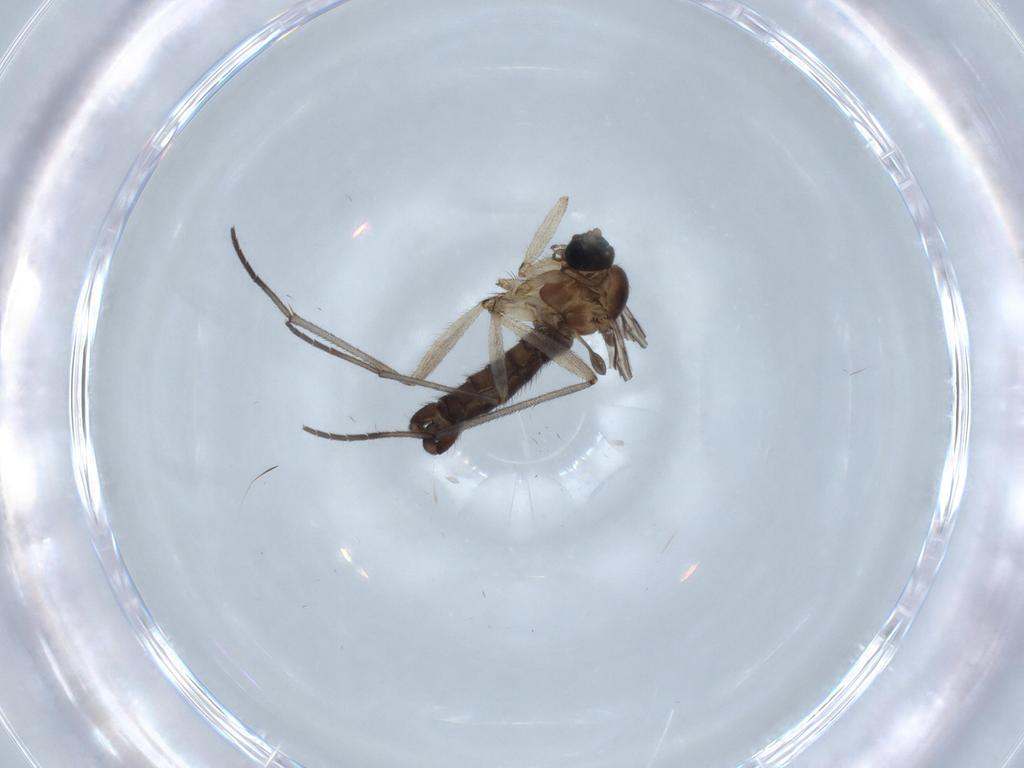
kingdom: Animalia
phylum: Arthropoda
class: Insecta
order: Diptera
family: Sciaridae
